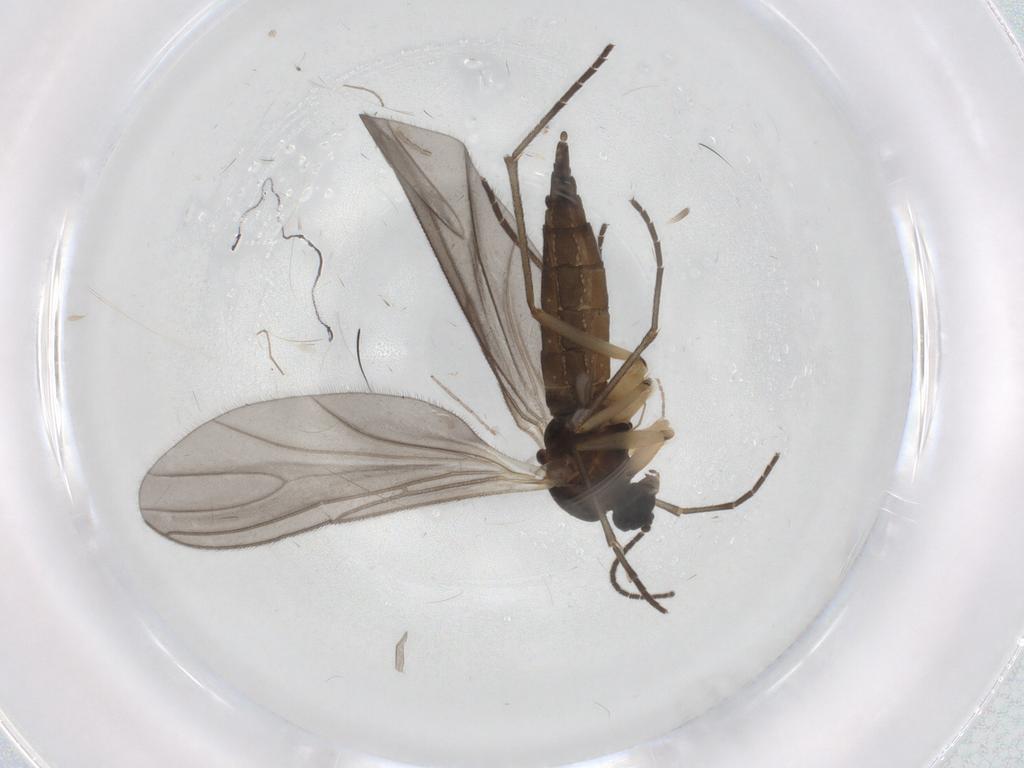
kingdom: Animalia
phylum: Arthropoda
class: Insecta
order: Diptera
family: Sciaridae
